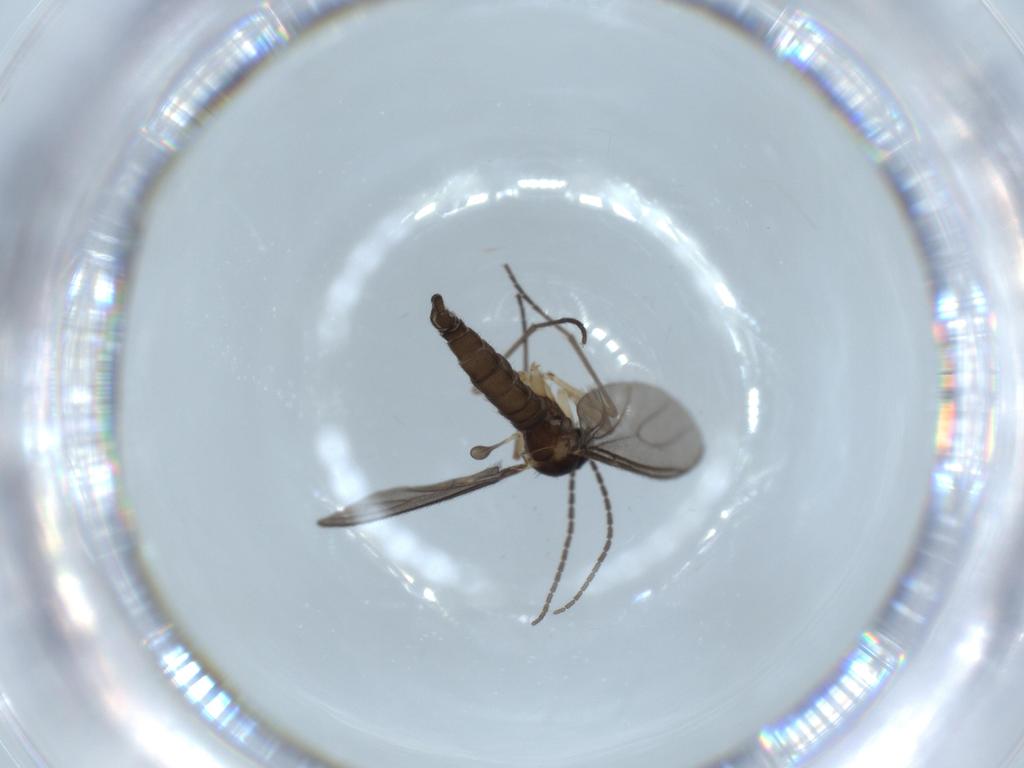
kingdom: Animalia
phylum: Arthropoda
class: Insecta
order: Diptera
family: Sciaridae
